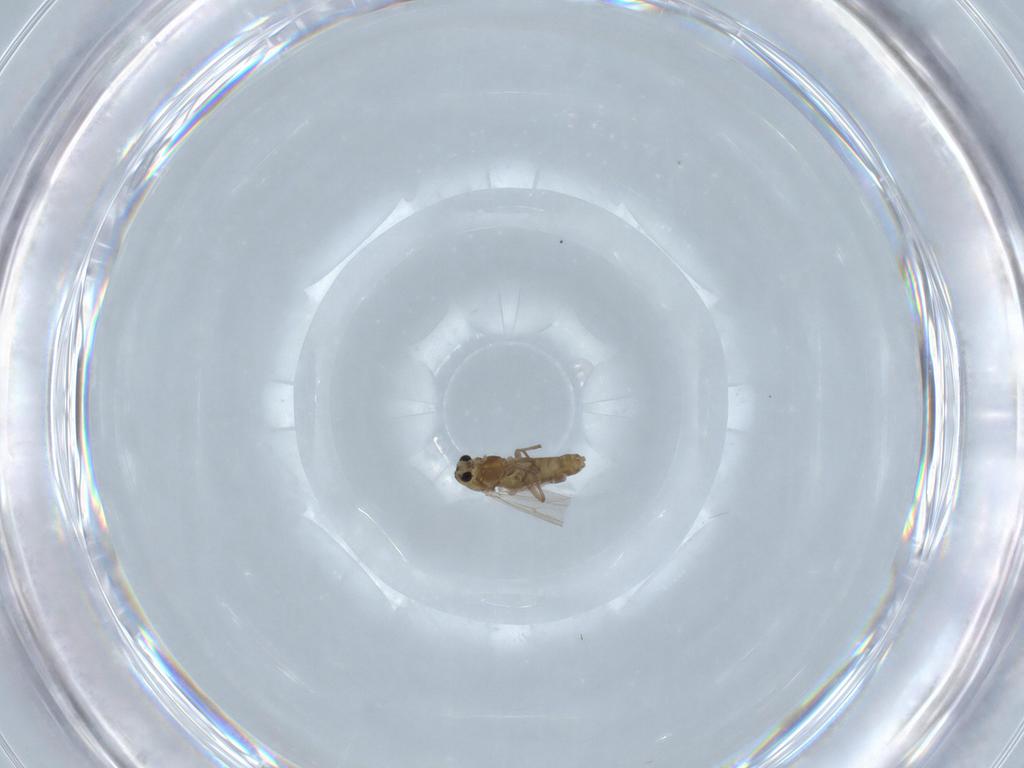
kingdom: Animalia
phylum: Arthropoda
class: Insecta
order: Diptera
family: Chironomidae
